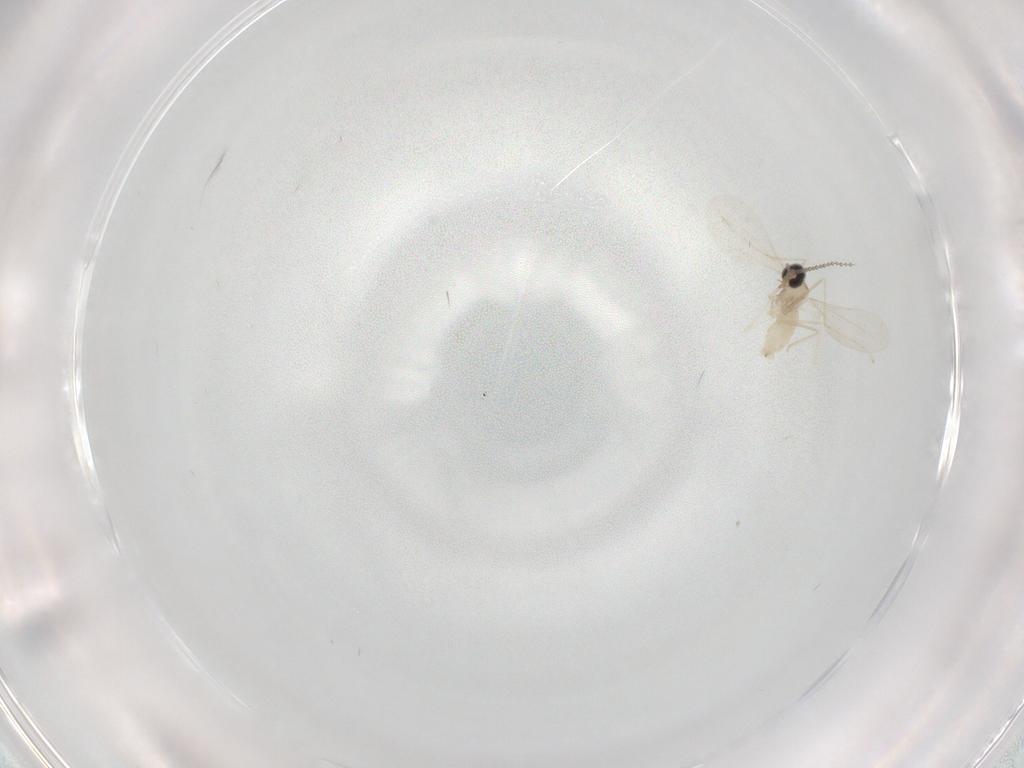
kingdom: Animalia
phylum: Arthropoda
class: Insecta
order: Diptera
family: Cecidomyiidae
